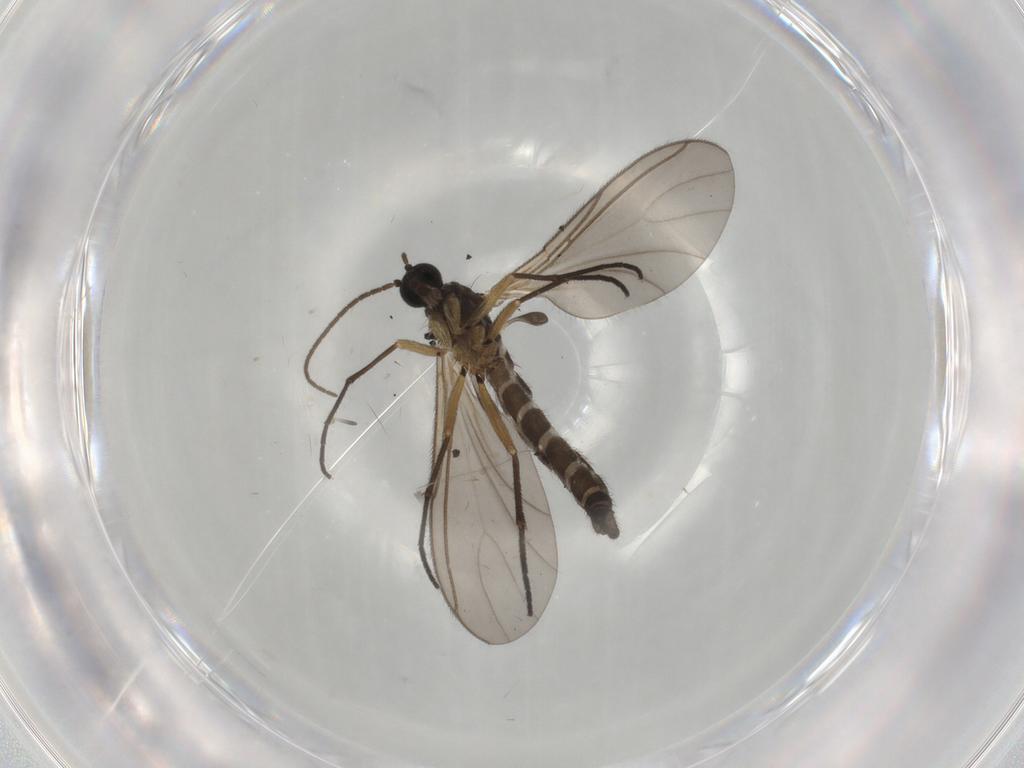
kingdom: Animalia
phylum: Arthropoda
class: Insecta
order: Diptera
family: Sciaridae
